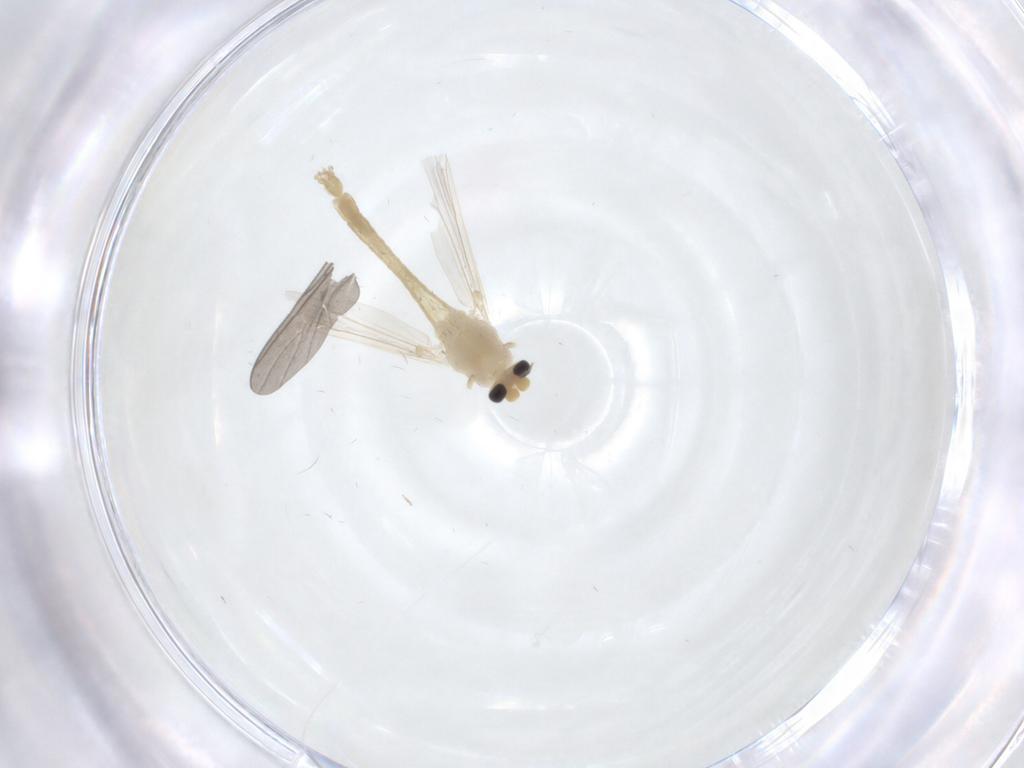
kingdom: Animalia
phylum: Arthropoda
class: Insecta
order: Diptera
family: Chironomidae
